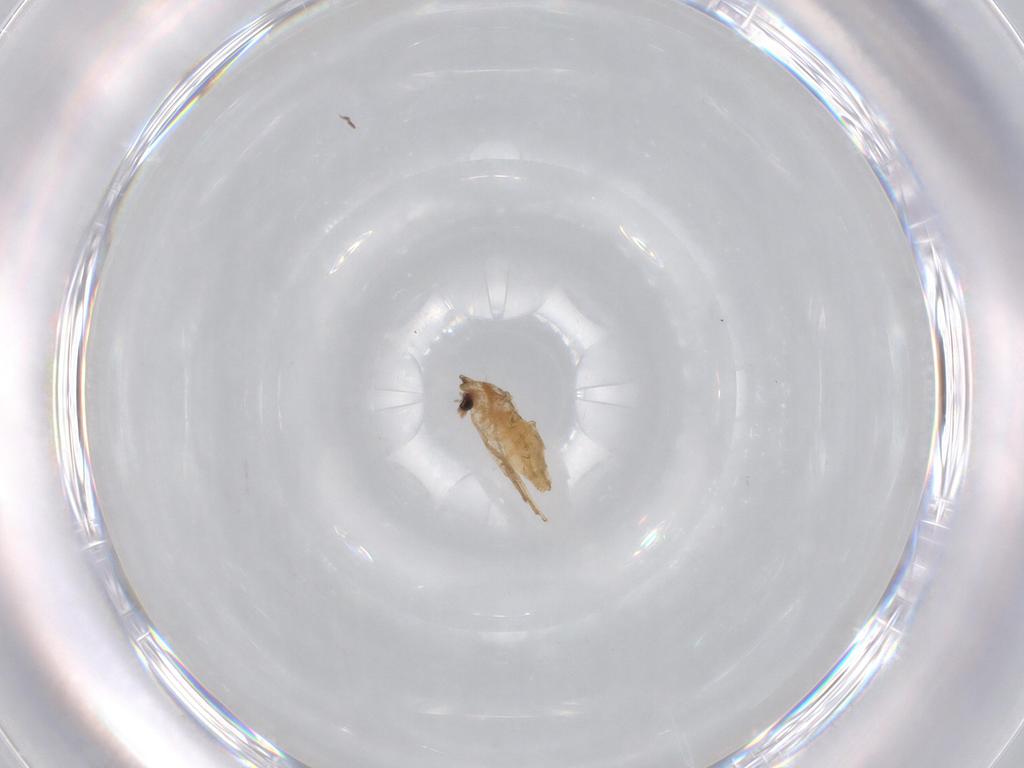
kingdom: Animalia
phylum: Arthropoda
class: Insecta
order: Diptera
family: Chironomidae
